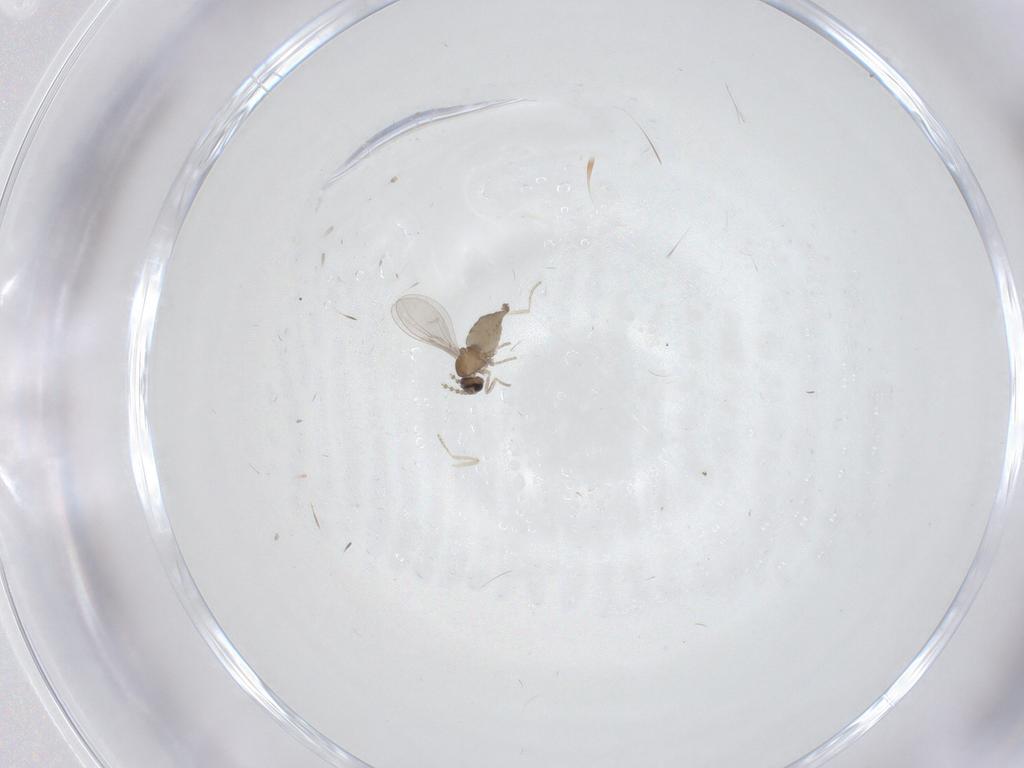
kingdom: Animalia
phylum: Arthropoda
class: Insecta
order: Diptera
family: Cecidomyiidae
